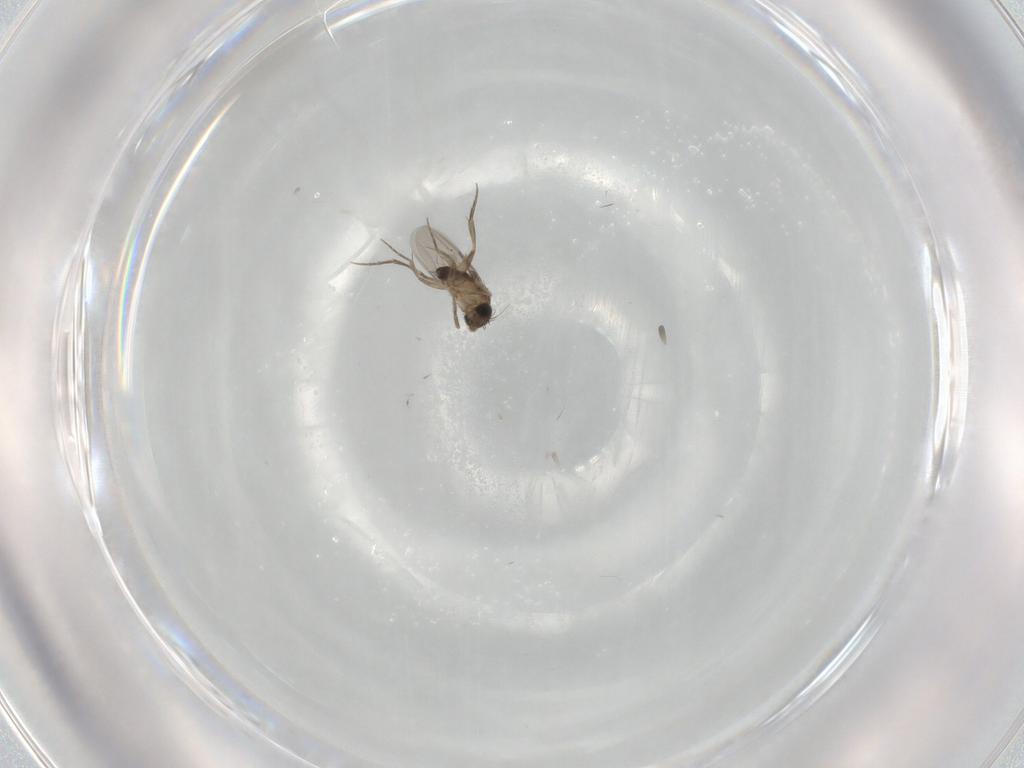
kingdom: Animalia
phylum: Arthropoda
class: Insecta
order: Diptera
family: Phoridae
